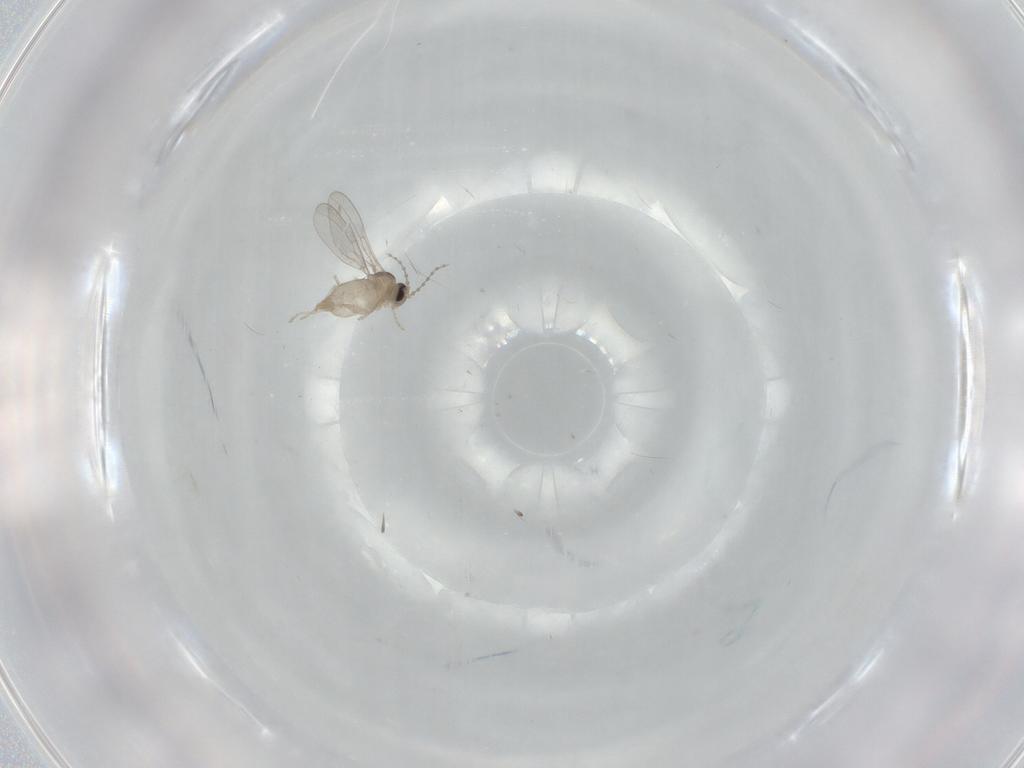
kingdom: Animalia
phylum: Arthropoda
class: Insecta
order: Diptera
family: Cecidomyiidae
